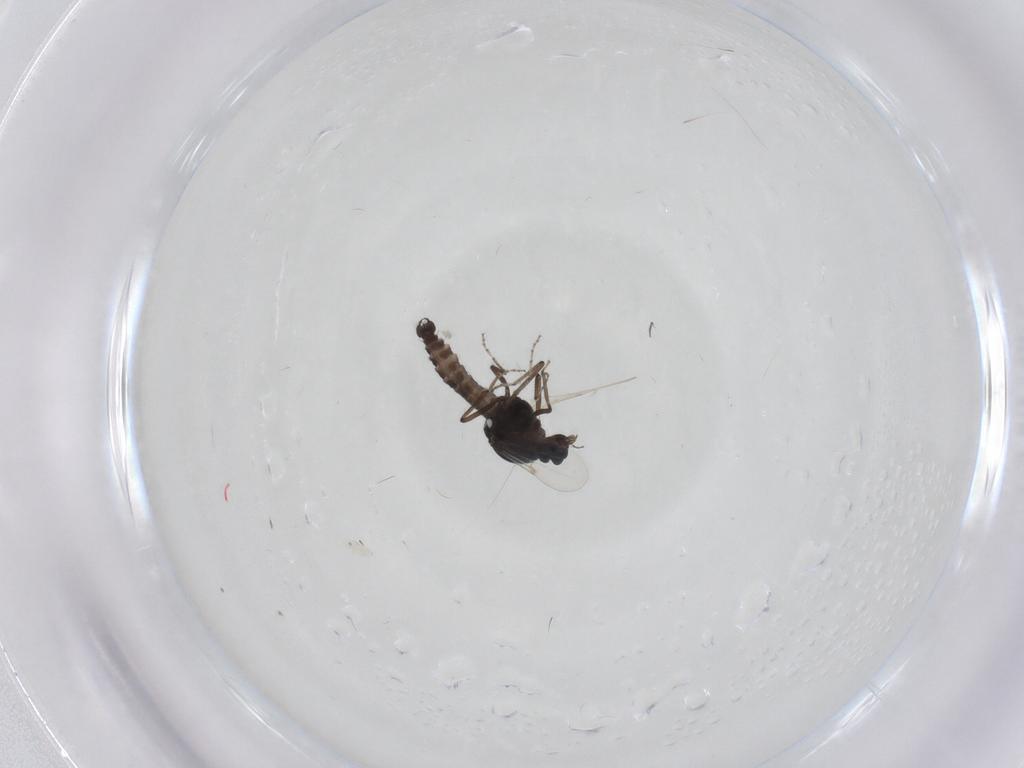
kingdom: Animalia
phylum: Arthropoda
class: Insecta
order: Diptera
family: Ceratopogonidae
